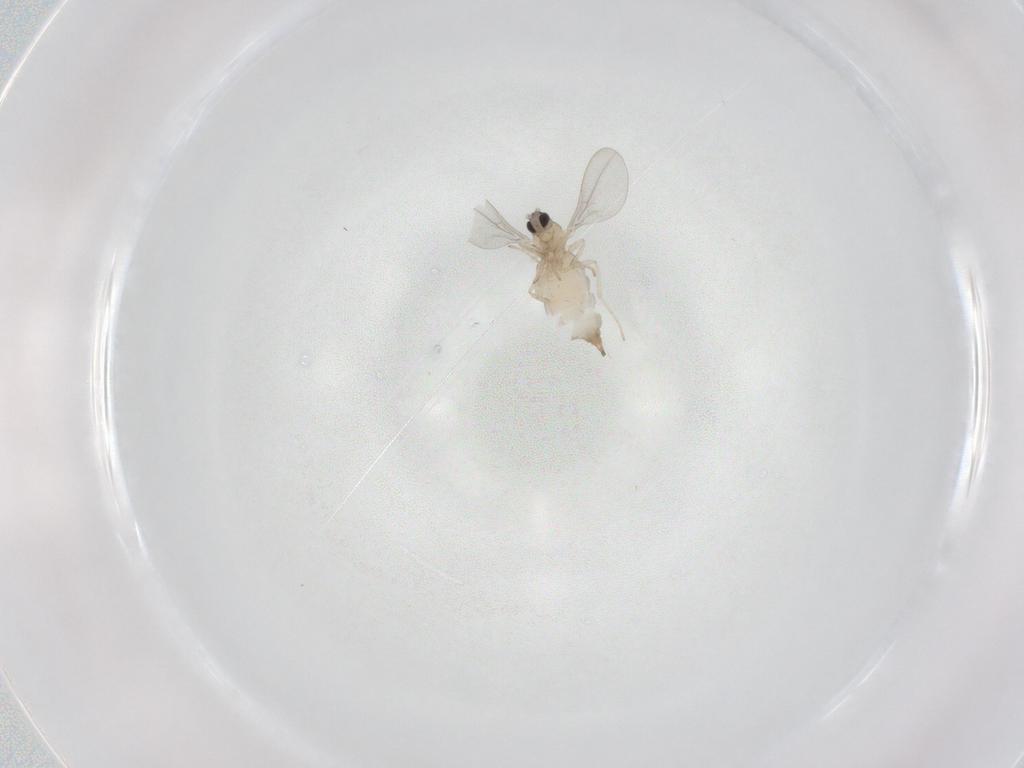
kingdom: Animalia
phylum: Arthropoda
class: Insecta
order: Diptera
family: Cecidomyiidae
